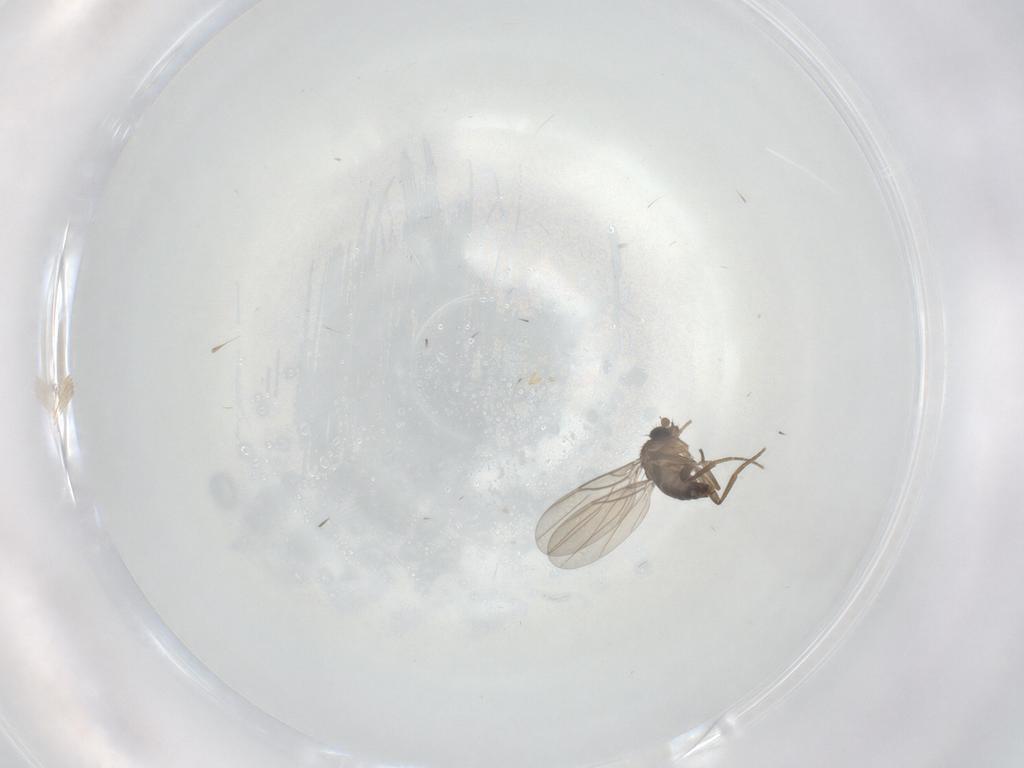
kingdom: Animalia
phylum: Arthropoda
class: Insecta
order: Diptera
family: Phoridae
